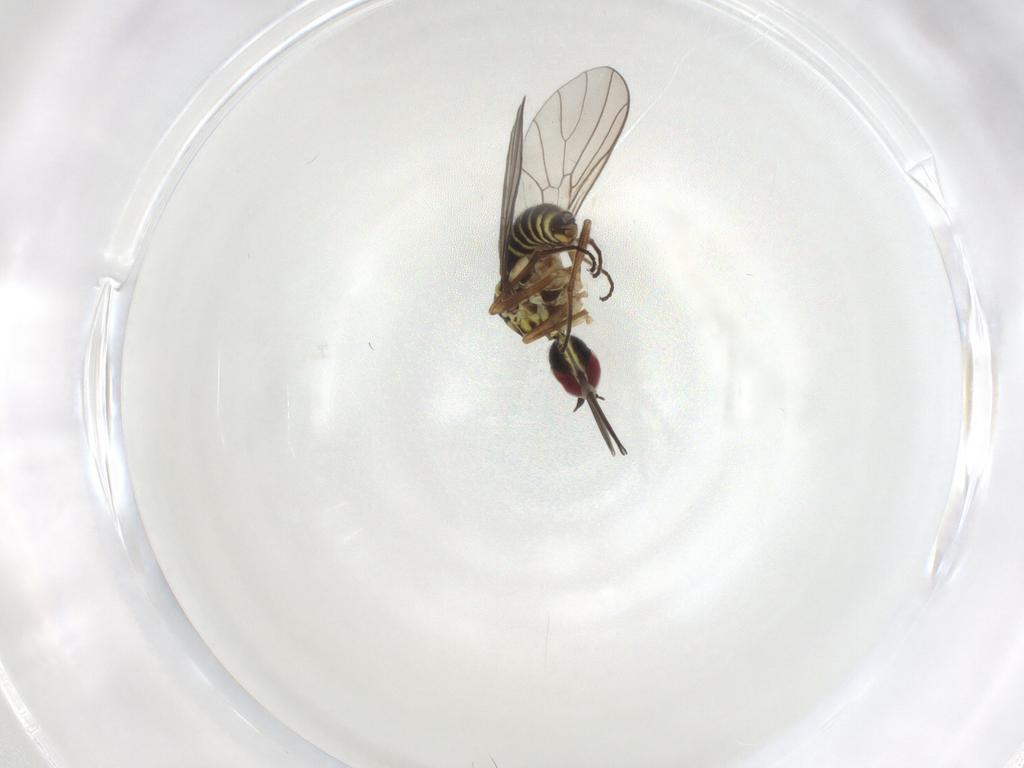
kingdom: Animalia
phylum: Arthropoda
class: Insecta
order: Diptera
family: Bombyliidae
